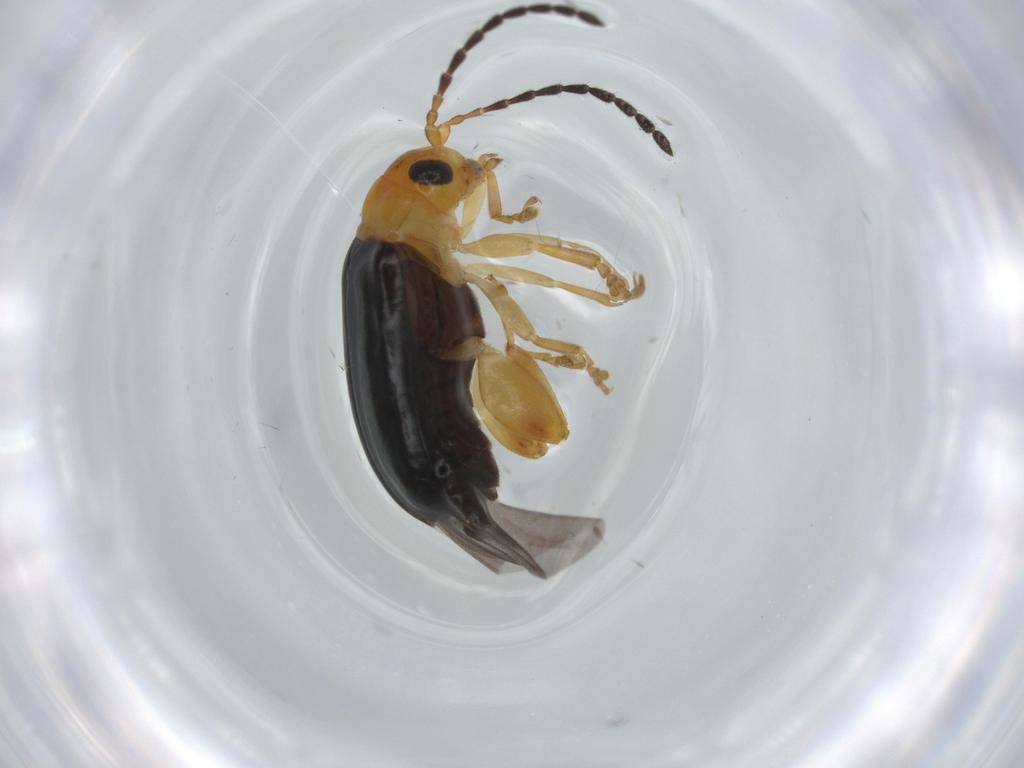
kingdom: Animalia
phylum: Arthropoda
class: Insecta
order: Coleoptera
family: Chrysomelidae
